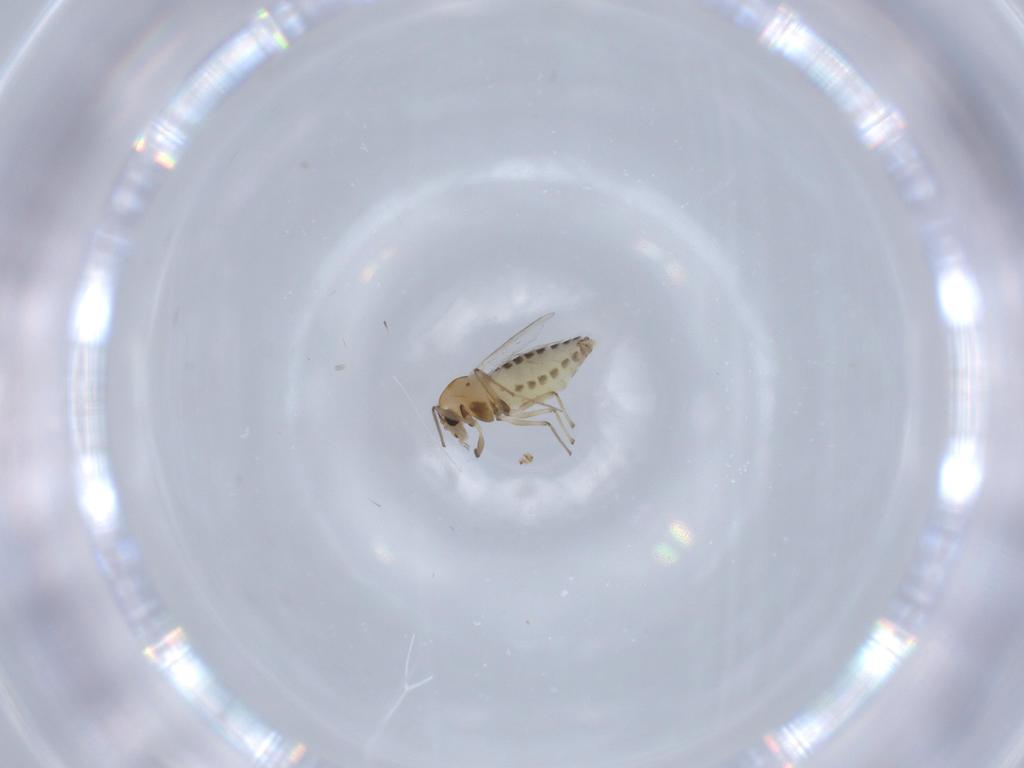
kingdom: Animalia
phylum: Arthropoda
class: Insecta
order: Diptera
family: Chironomidae
